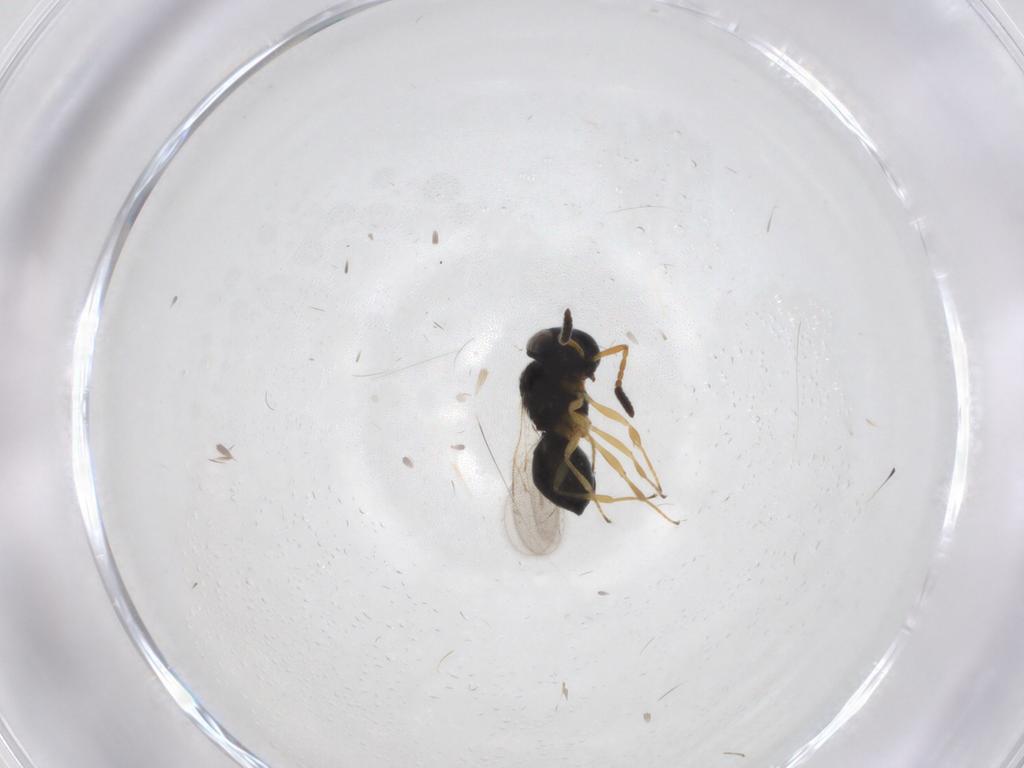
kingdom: Animalia
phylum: Arthropoda
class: Insecta
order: Hymenoptera
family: Scelionidae
